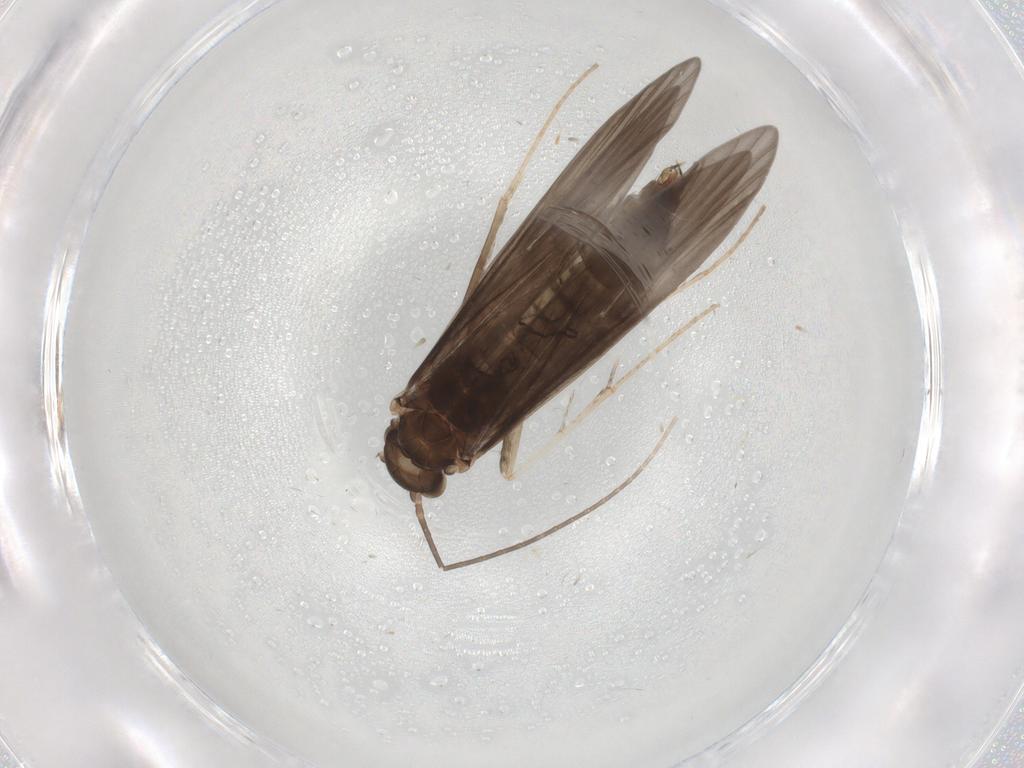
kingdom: Animalia
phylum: Arthropoda
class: Insecta
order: Trichoptera
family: Xiphocentronidae
